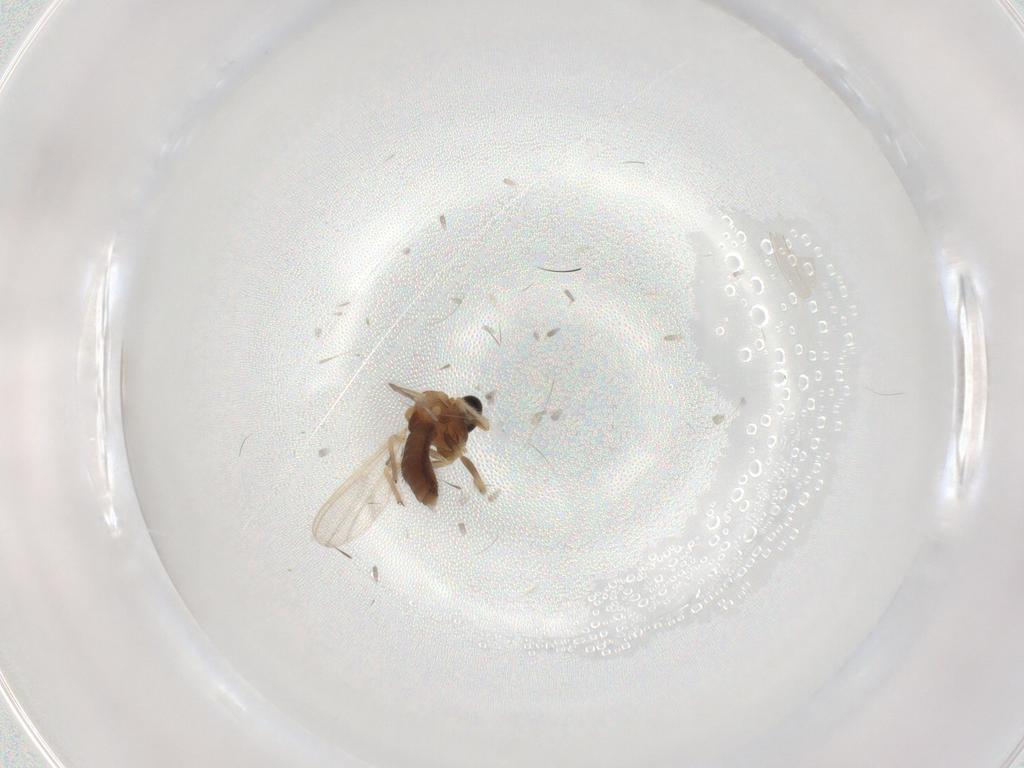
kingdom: Animalia
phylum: Arthropoda
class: Insecta
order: Diptera
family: Chironomidae
